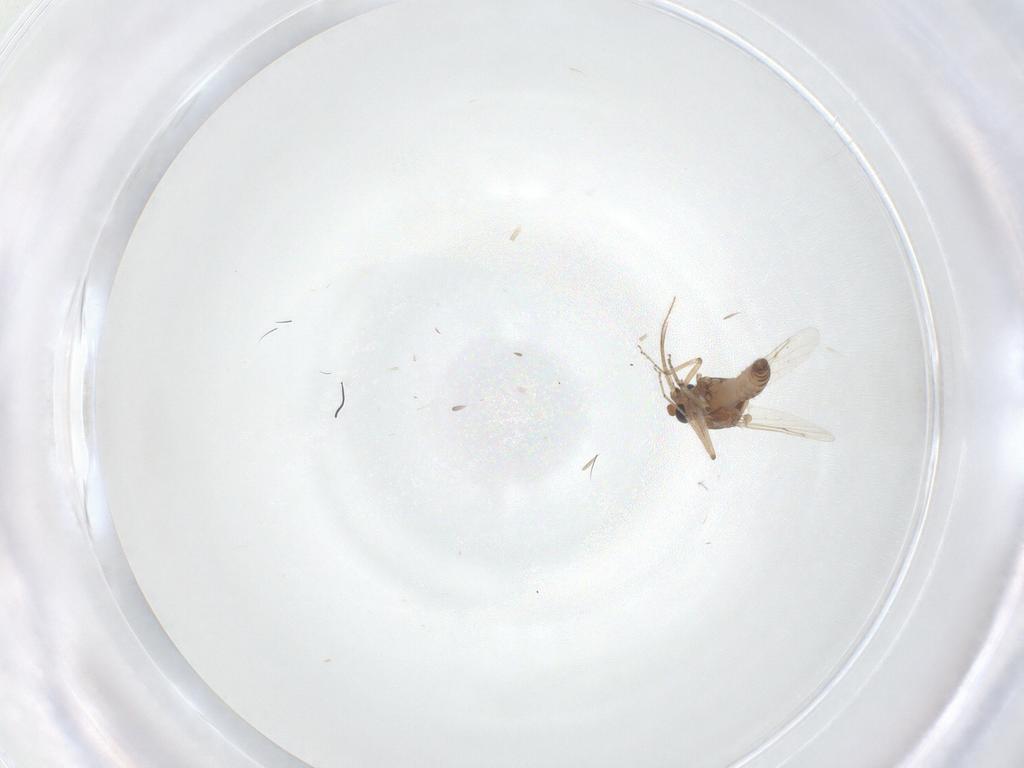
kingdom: Animalia
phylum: Arthropoda
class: Insecta
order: Diptera
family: Ceratopogonidae
